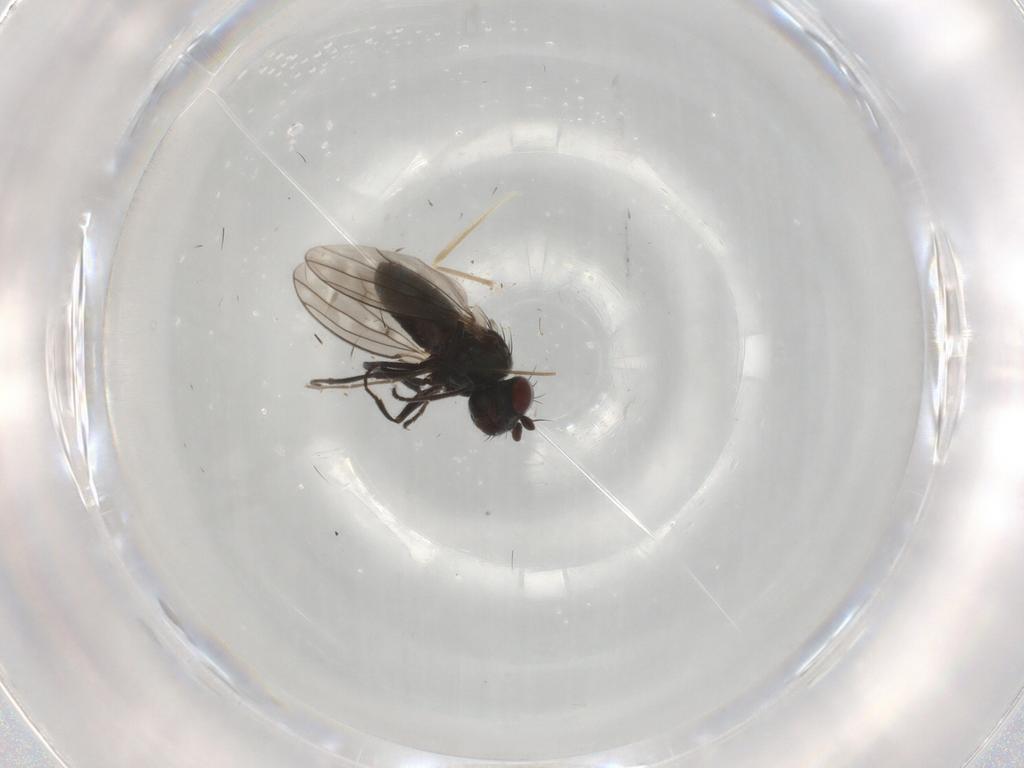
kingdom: Animalia
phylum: Arthropoda
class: Insecta
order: Diptera
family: Ephydridae
